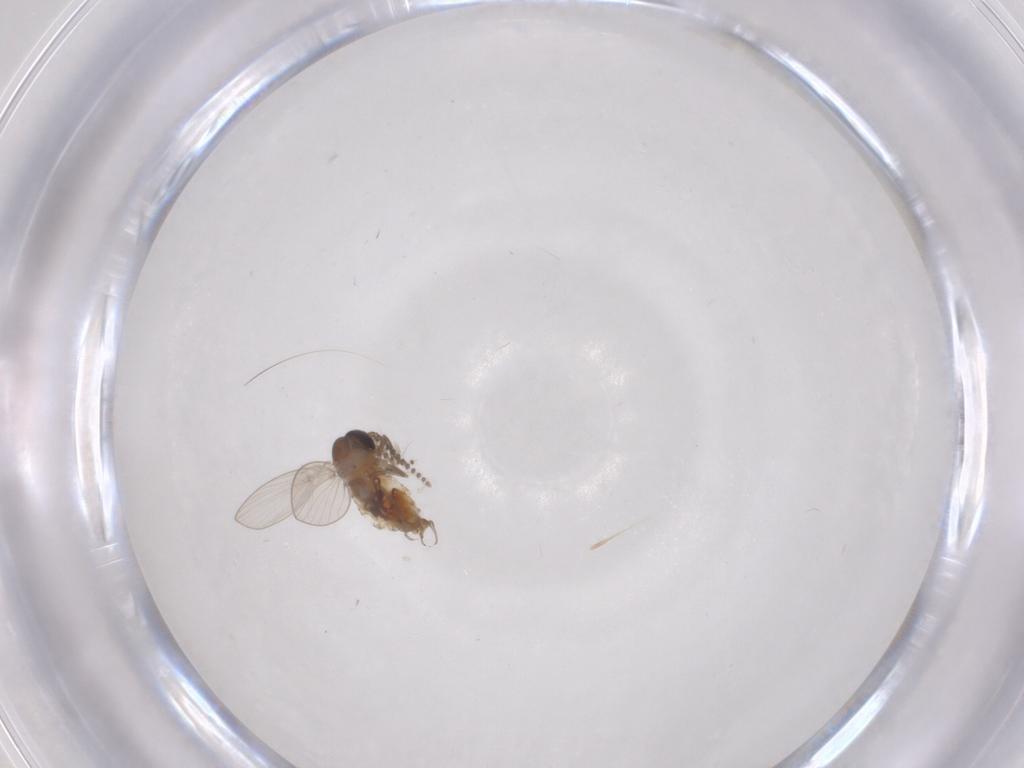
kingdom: Animalia
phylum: Arthropoda
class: Insecta
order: Diptera
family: Psychodidae
